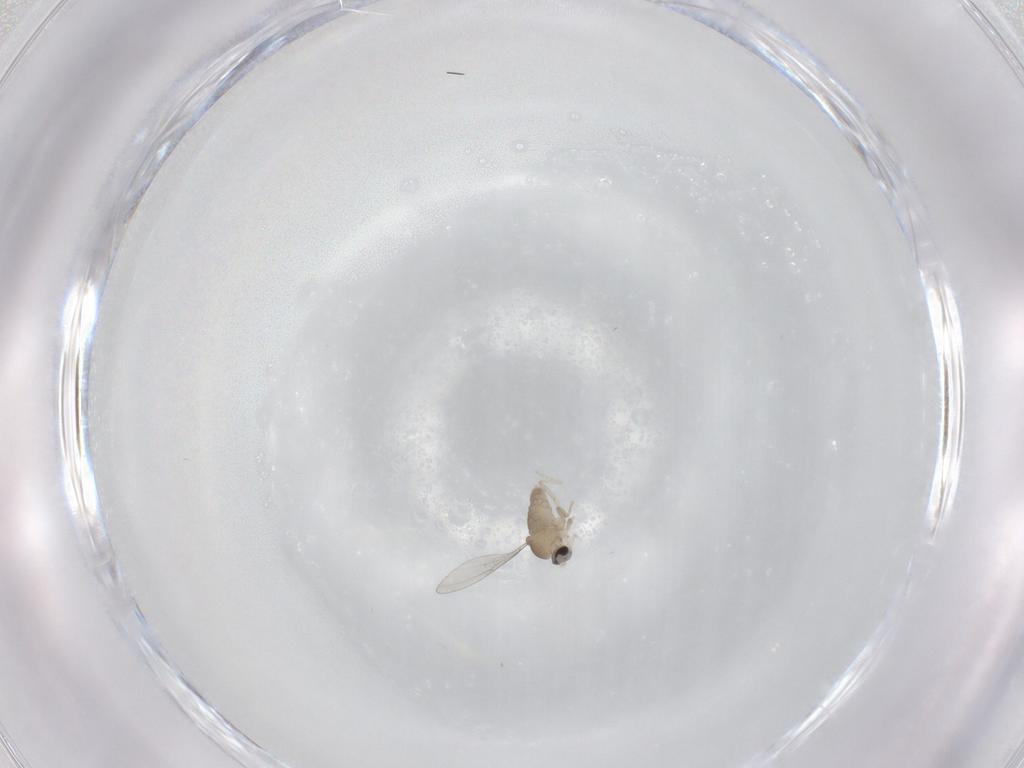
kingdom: Animalia
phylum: Arthropoda
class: Insecta
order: Diptera
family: Cecidomyiidae
